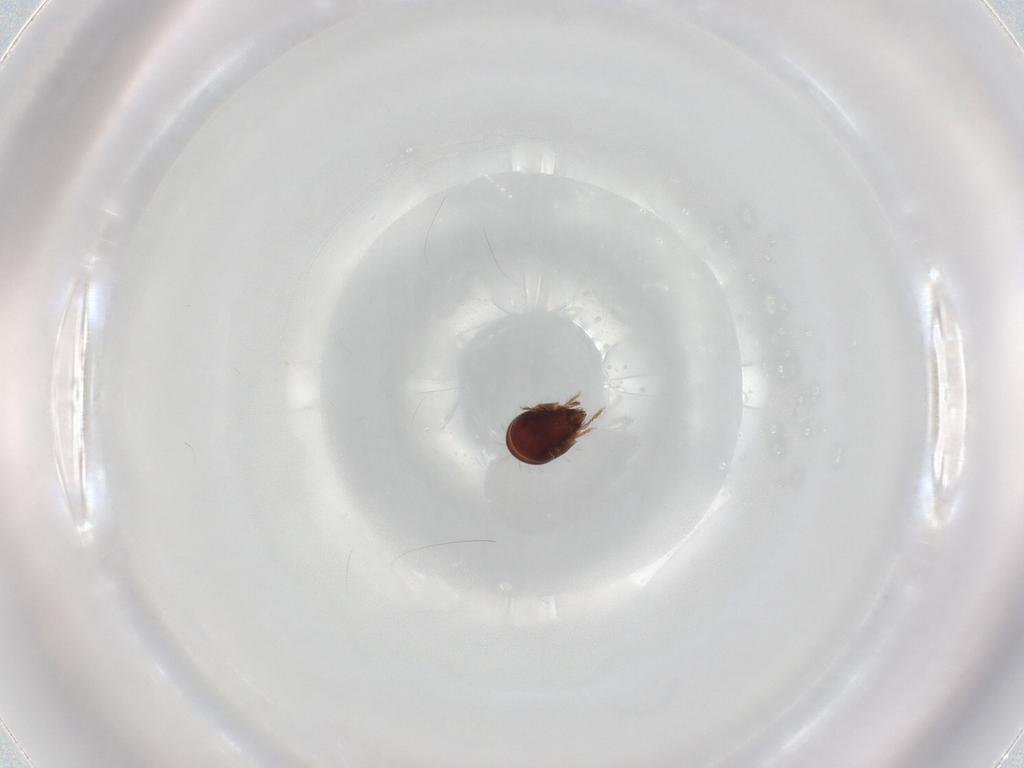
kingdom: Animalia
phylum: Arthropoda
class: Arachnida
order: Sarcoptiformes
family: Humerobatidae
